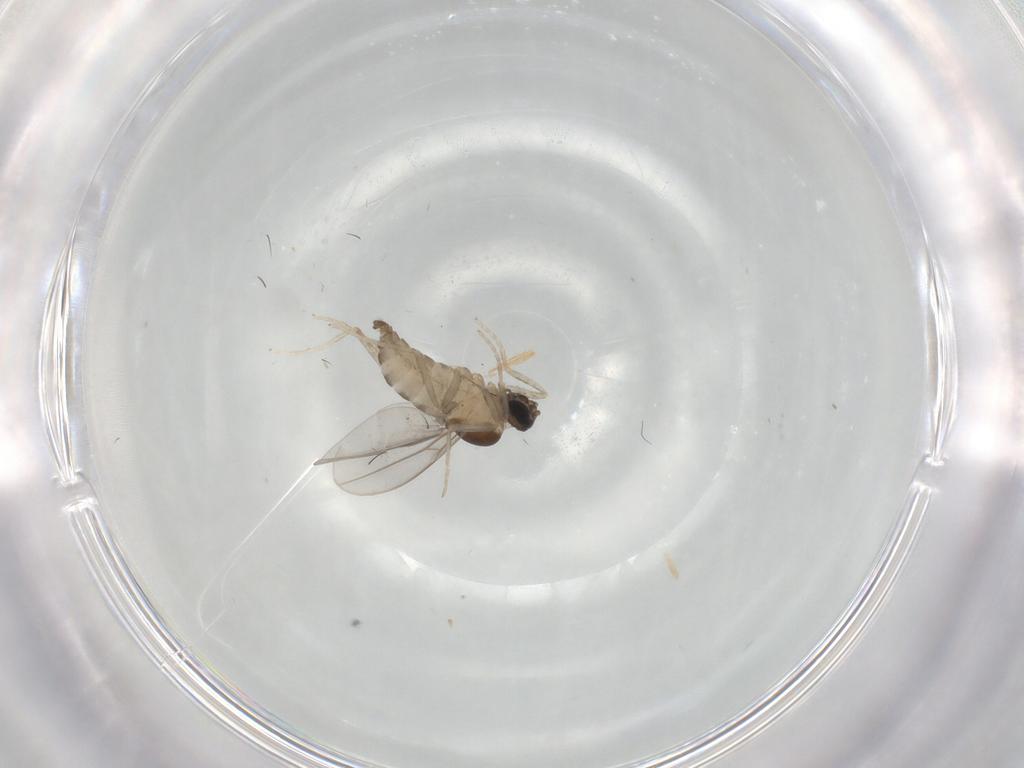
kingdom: Animalia
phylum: Arthropoda
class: Insecta
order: Diptera
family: Cecidomyiidae
